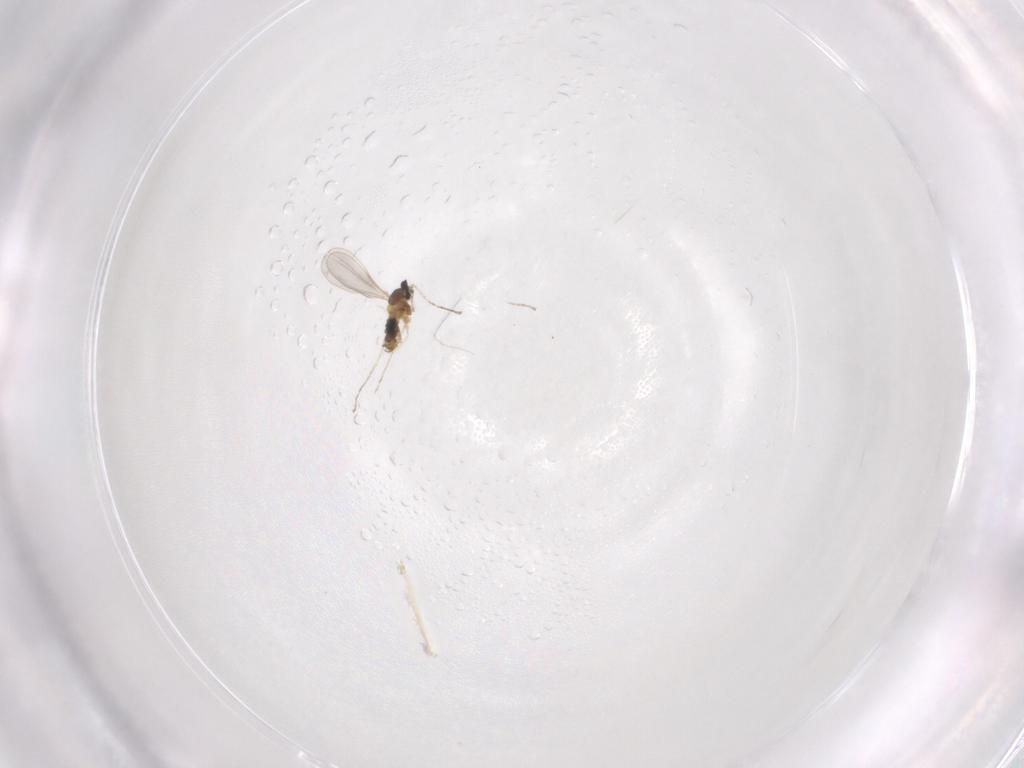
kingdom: Animalia
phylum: Arthropoda
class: Insecta
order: Diptera
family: Cecidomyiidae
